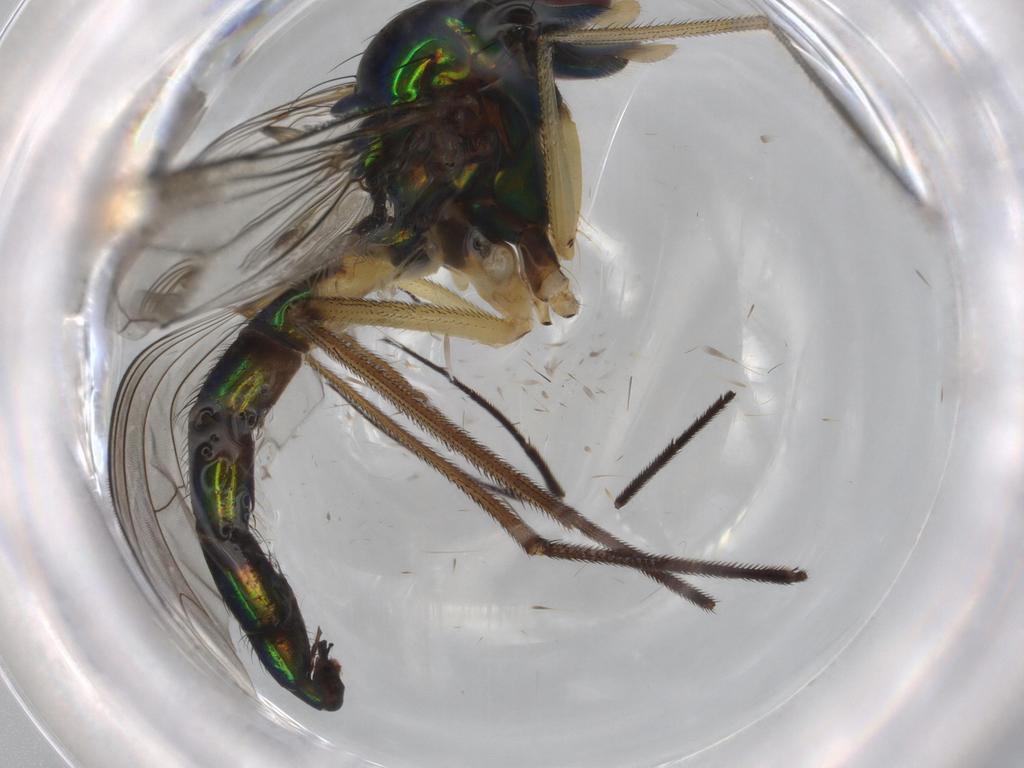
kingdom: Animalia
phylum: Arthropoda
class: Insecta
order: Diptera
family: Dolichopodidae
